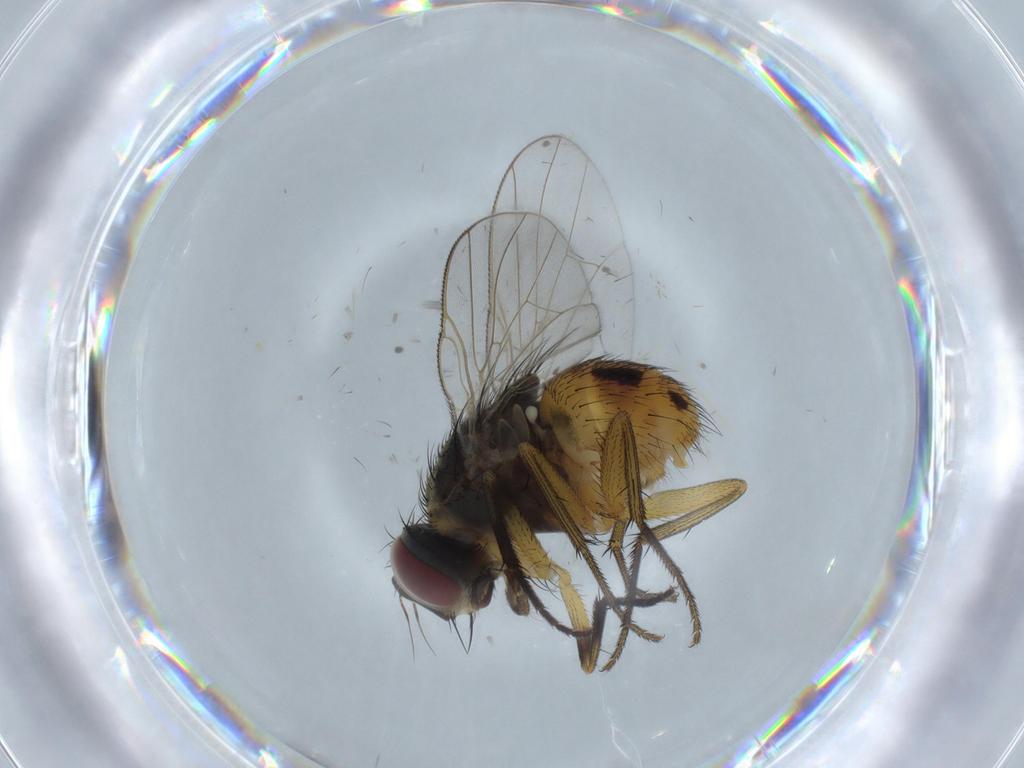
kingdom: Animalia
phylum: Arthropoda
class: Insecta
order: Diptera
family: Muscidae
